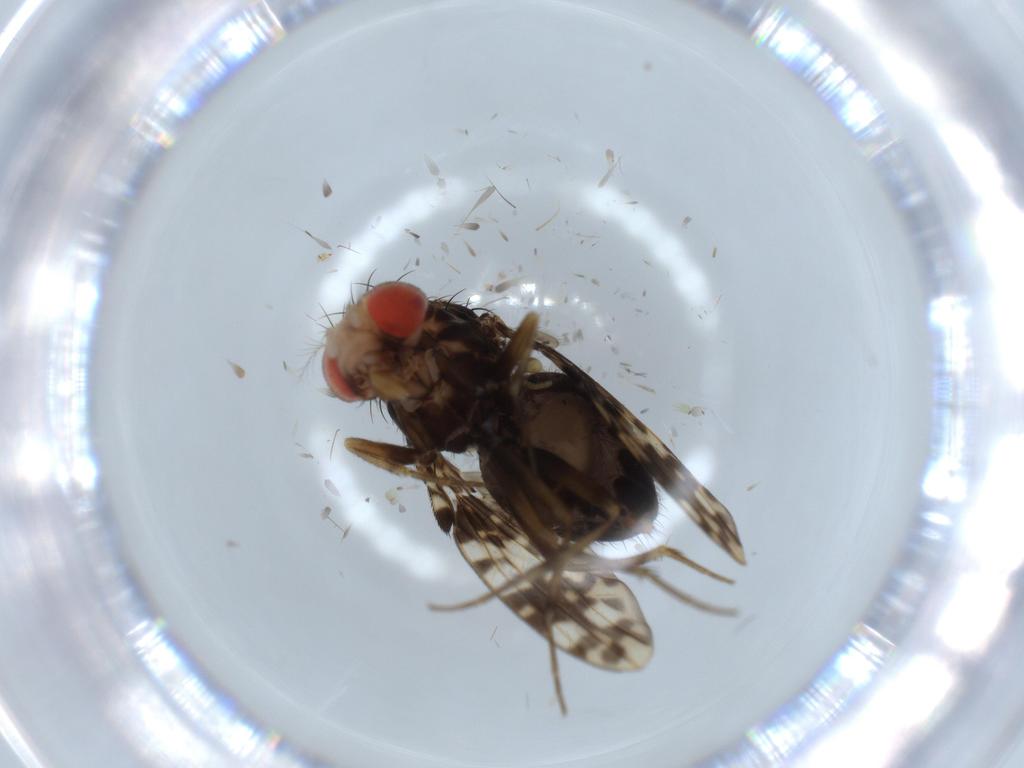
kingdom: Animalia
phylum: Arthropoda
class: Insecta
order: Diptera
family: Drosophilidae
